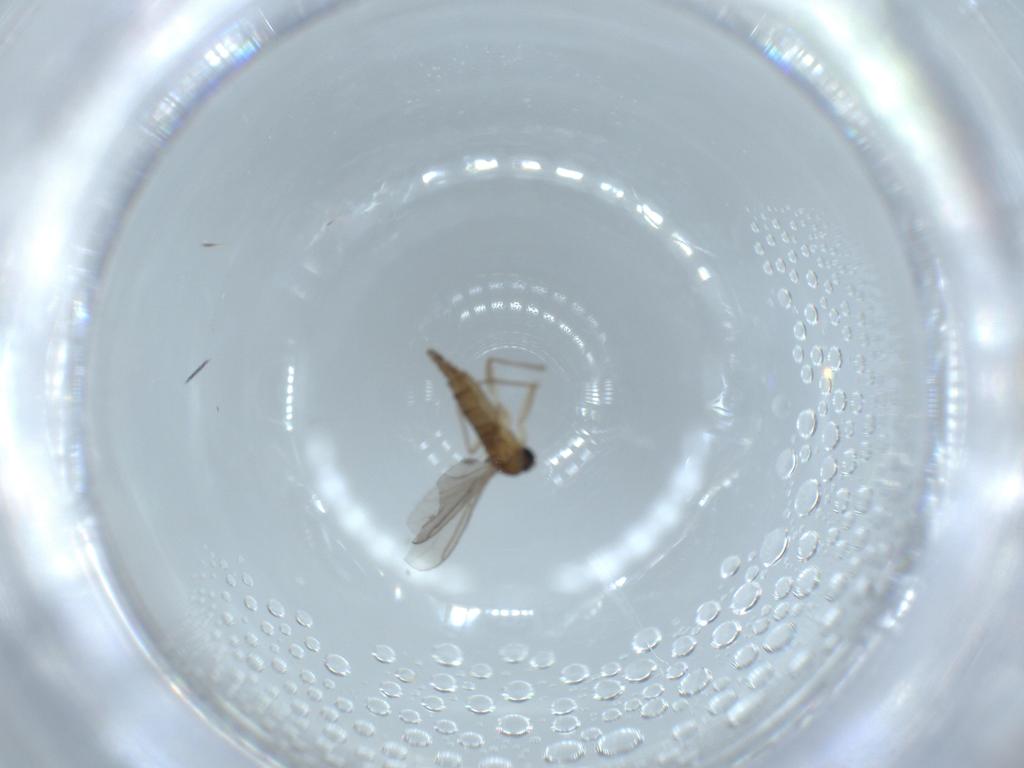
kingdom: Animalia
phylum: Arthropoda
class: Insecta
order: Diptera
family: Sciaridae
